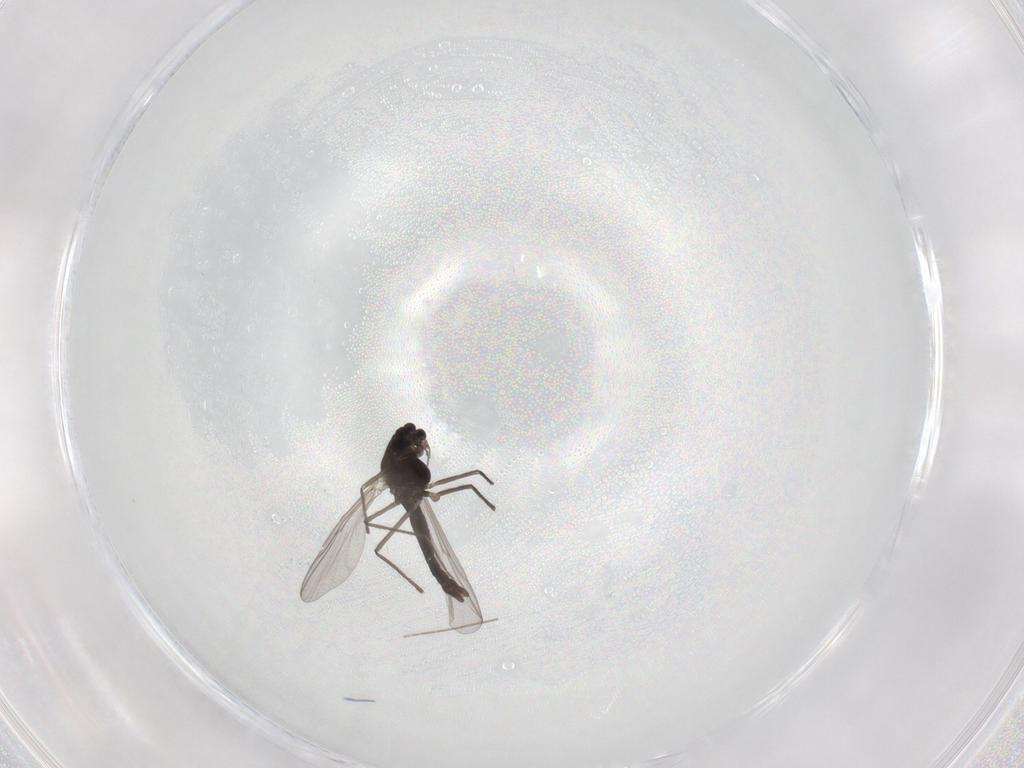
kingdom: Animalia
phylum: Arthropoda
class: Insecta
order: Diptera
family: Chironomidae
